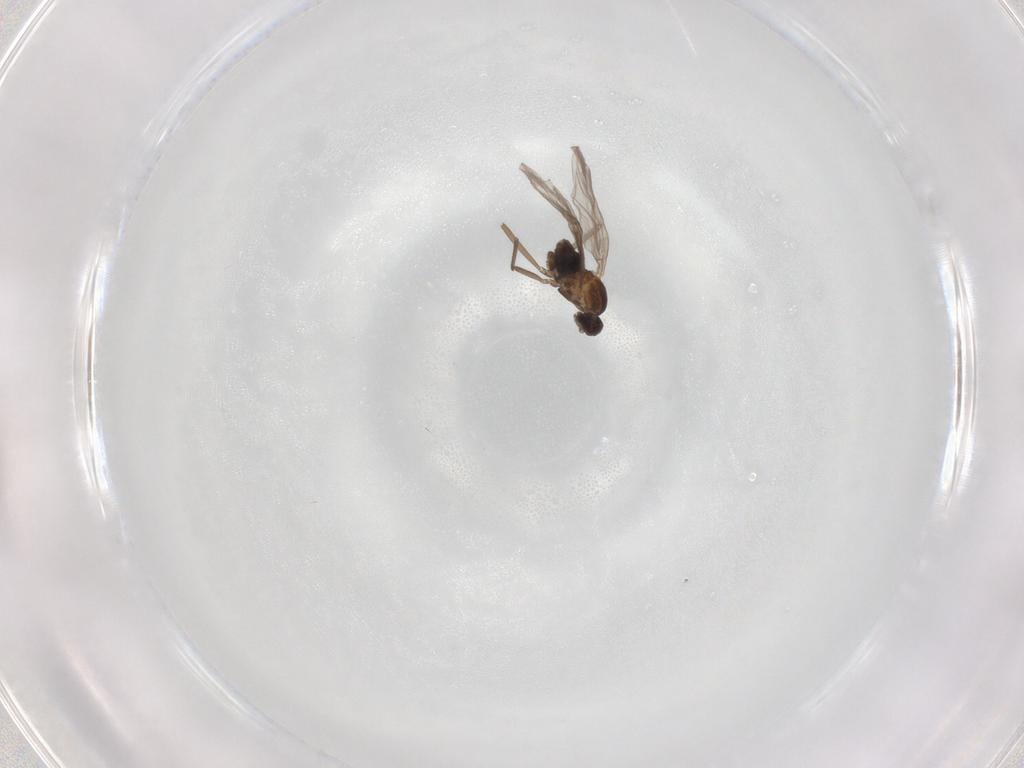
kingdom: Animalia
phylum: Arthropoda
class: Insecta
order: Diptera
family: Cecidomyiidae
